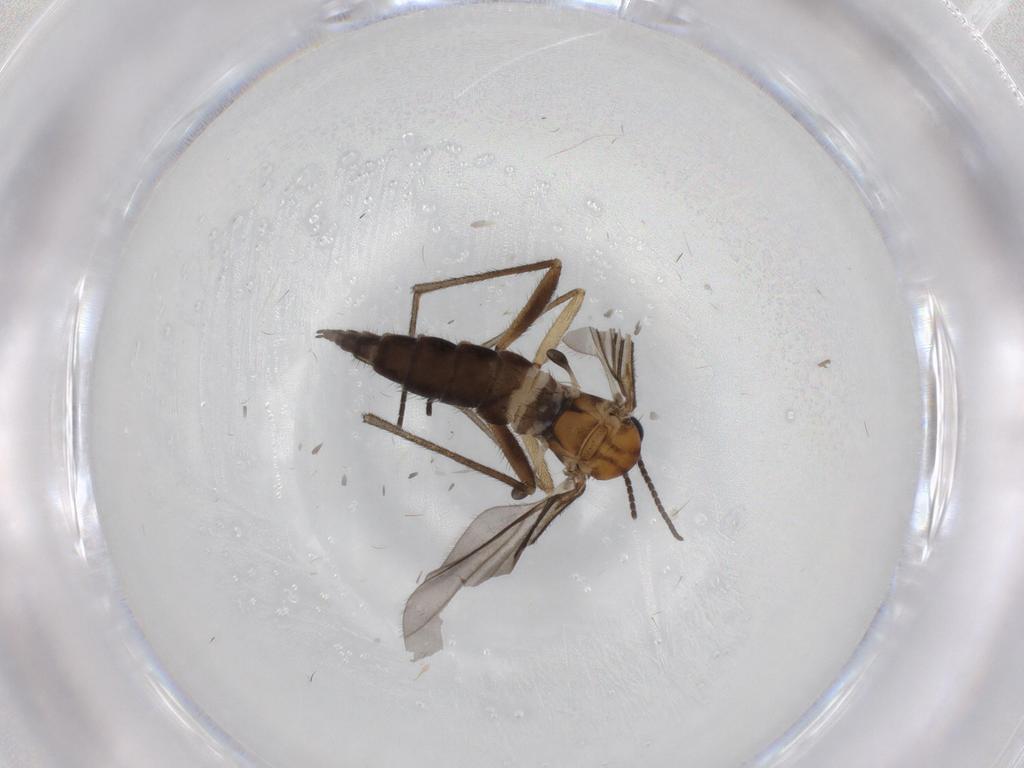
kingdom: Animalia
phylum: Arthropoda
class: Insecta
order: Diptera
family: Sciaridae
